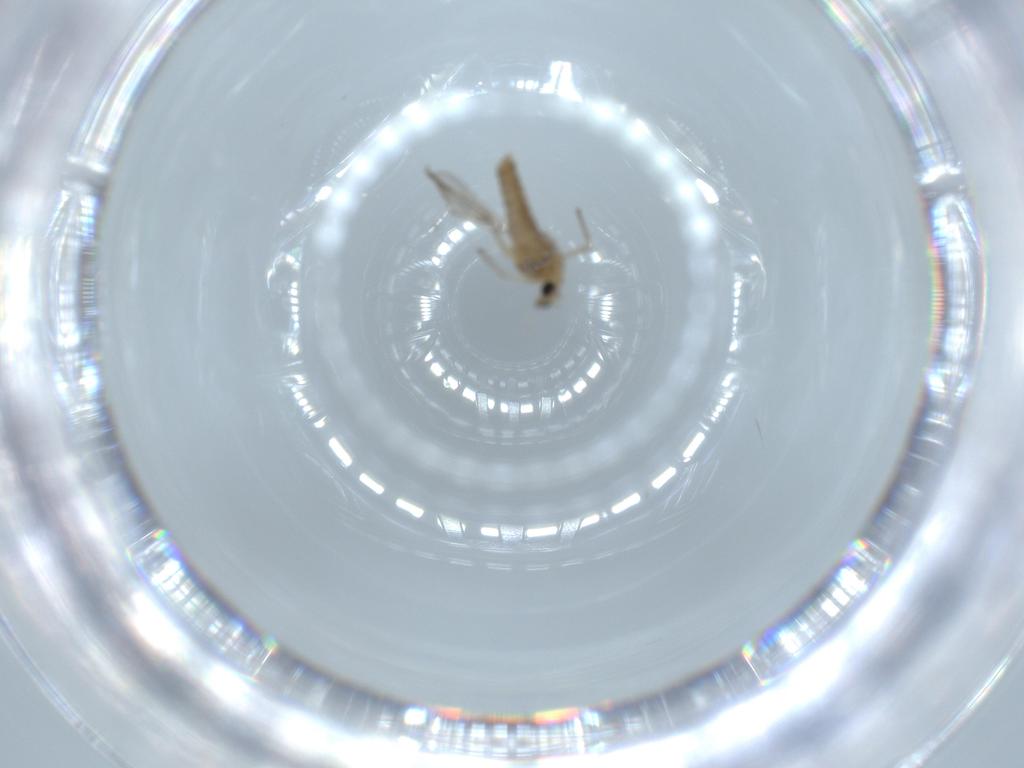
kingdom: Animalia
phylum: Arthropoda
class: Insecta
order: Diptera
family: Chironomidae
